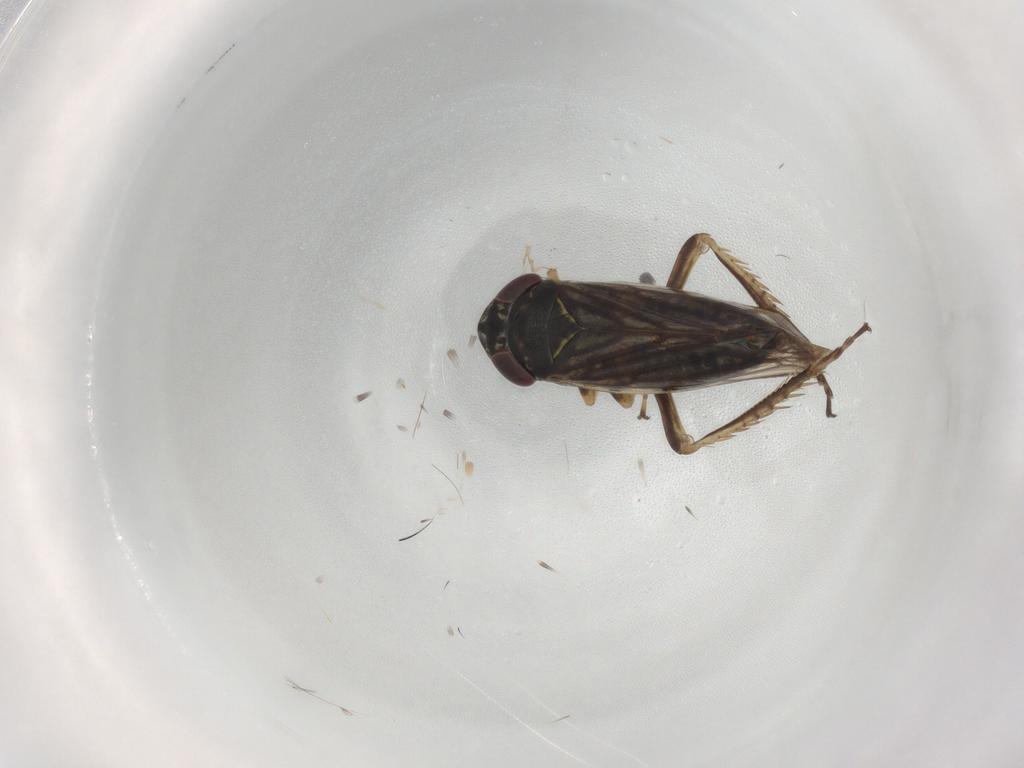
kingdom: Animalia
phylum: Arthropoda
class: Insecta
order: Hemiptera
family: Cicadellidae
